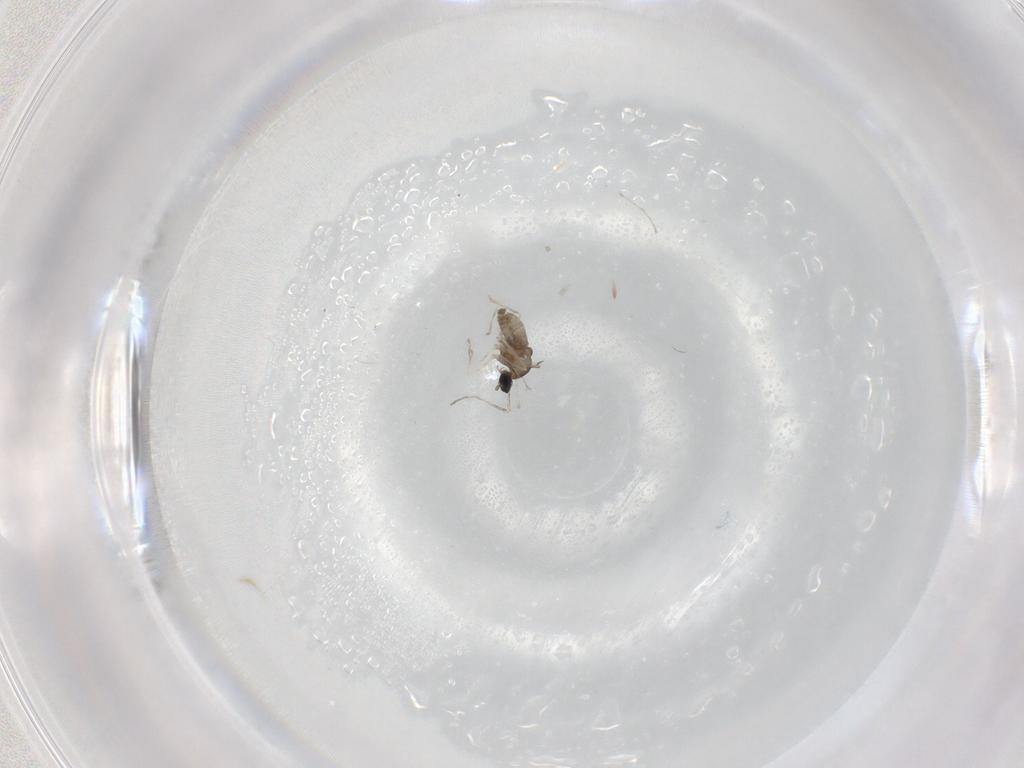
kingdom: Animalia
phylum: Arthropoda
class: Insecta
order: Diptera
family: Cecidomyiidae
